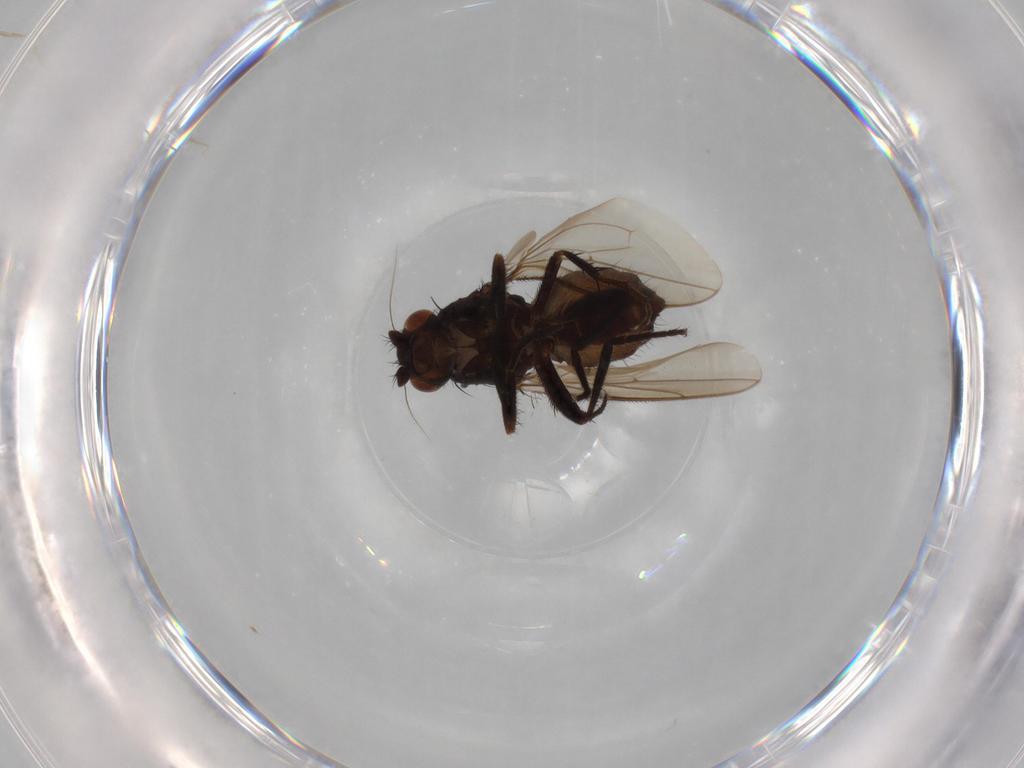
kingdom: Animalia
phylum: Arthropoda
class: Insecta
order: Diptera
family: Sphaeroceridae
